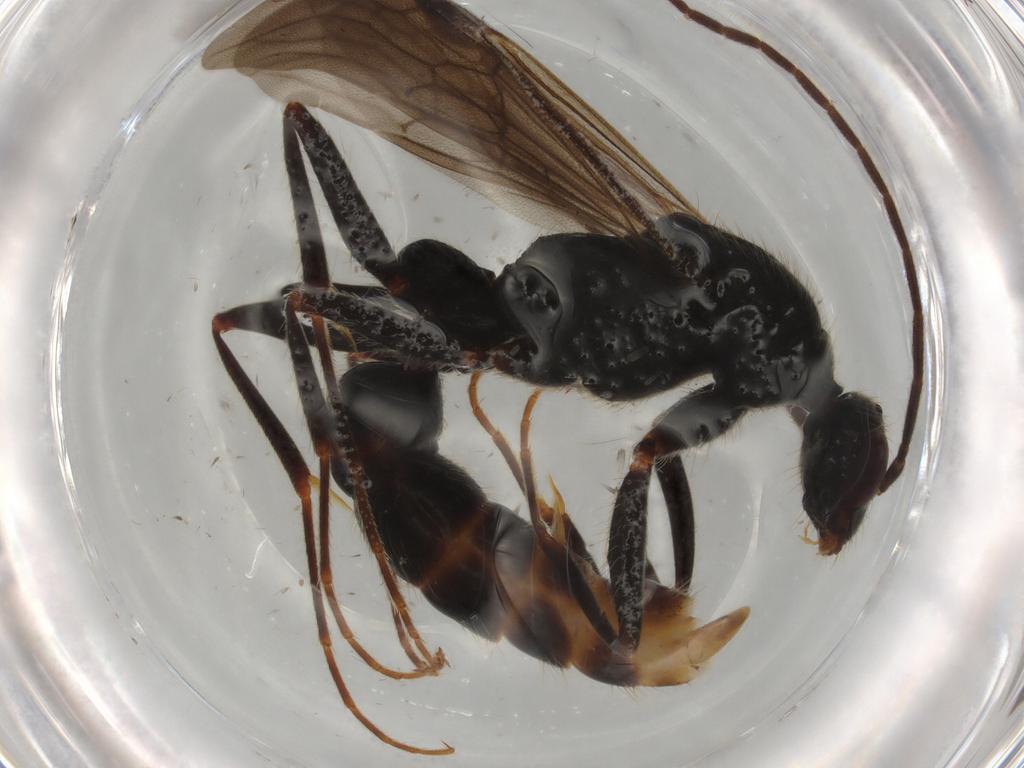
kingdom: Animalia
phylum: Arthropoda
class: Insecta
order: Hymenoptera
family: Formicidae
